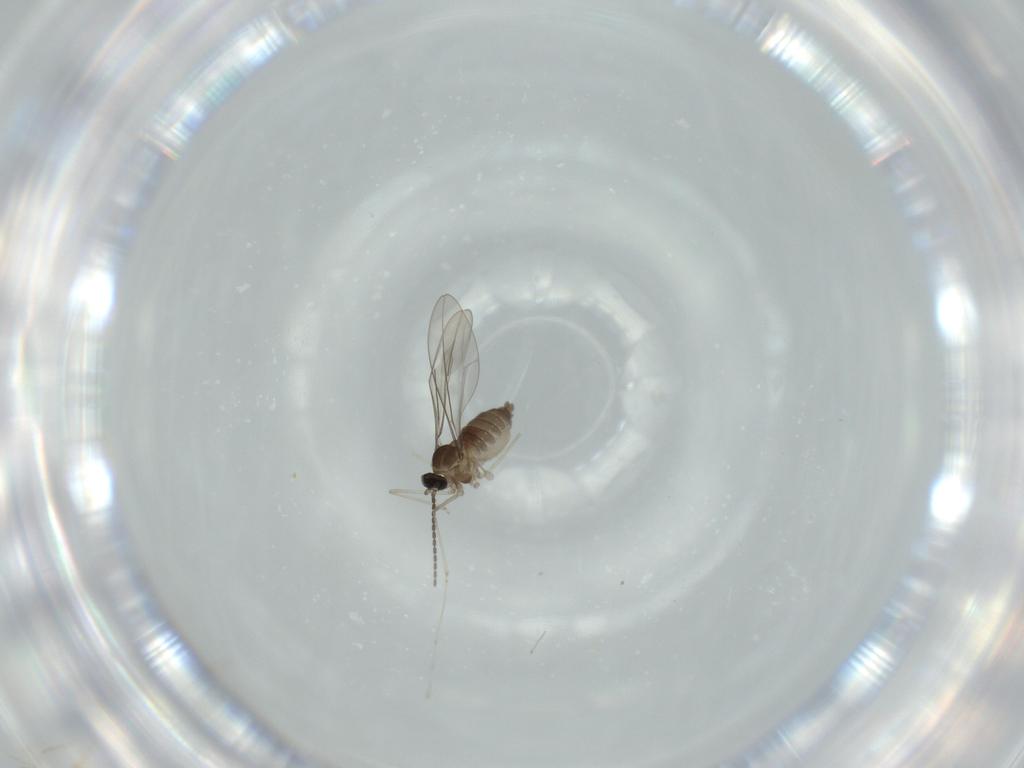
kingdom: Animalia
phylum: Arthropoda
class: Insecta
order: Diptera
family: Cecidomyiidae
